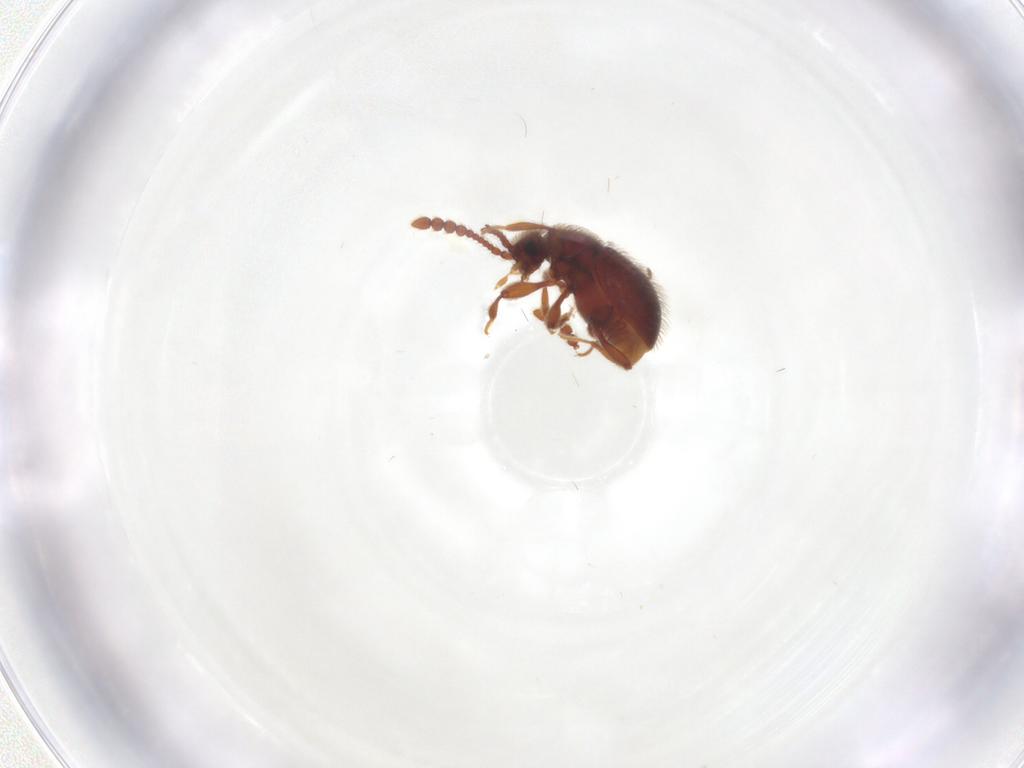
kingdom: Animalia
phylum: Arthropoda
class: Insecta
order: Coleoptera
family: Staphylinidae
